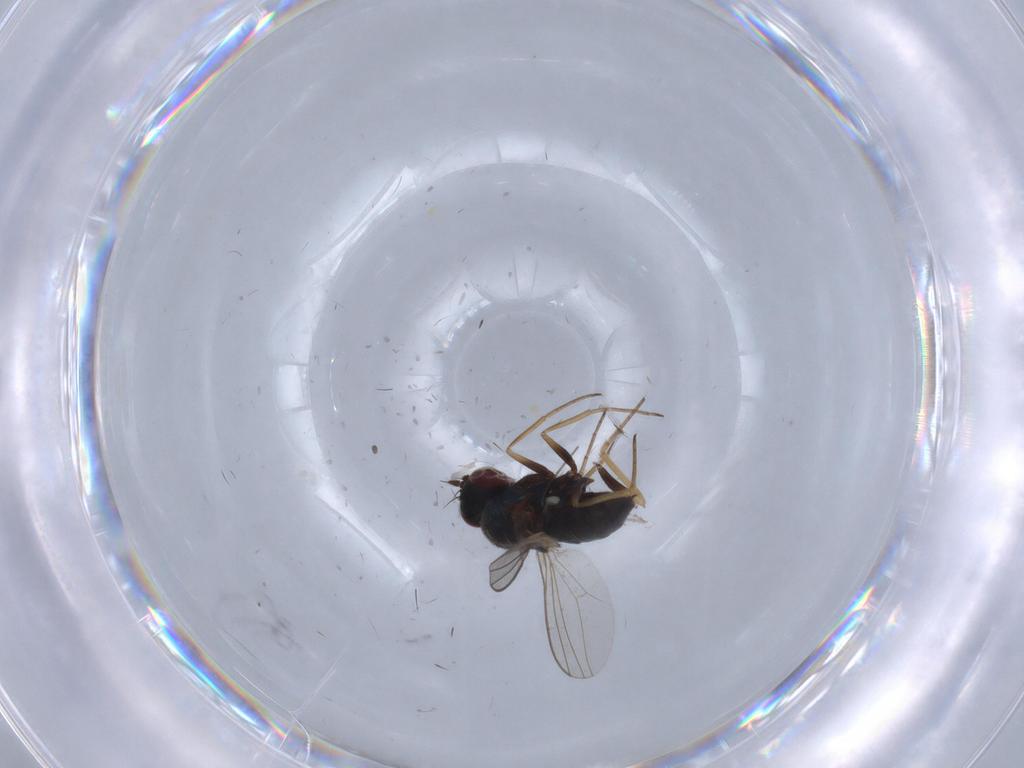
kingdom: Animalia
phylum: Arthropoda
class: Insecta
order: Diptera
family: Dolichopodidae
